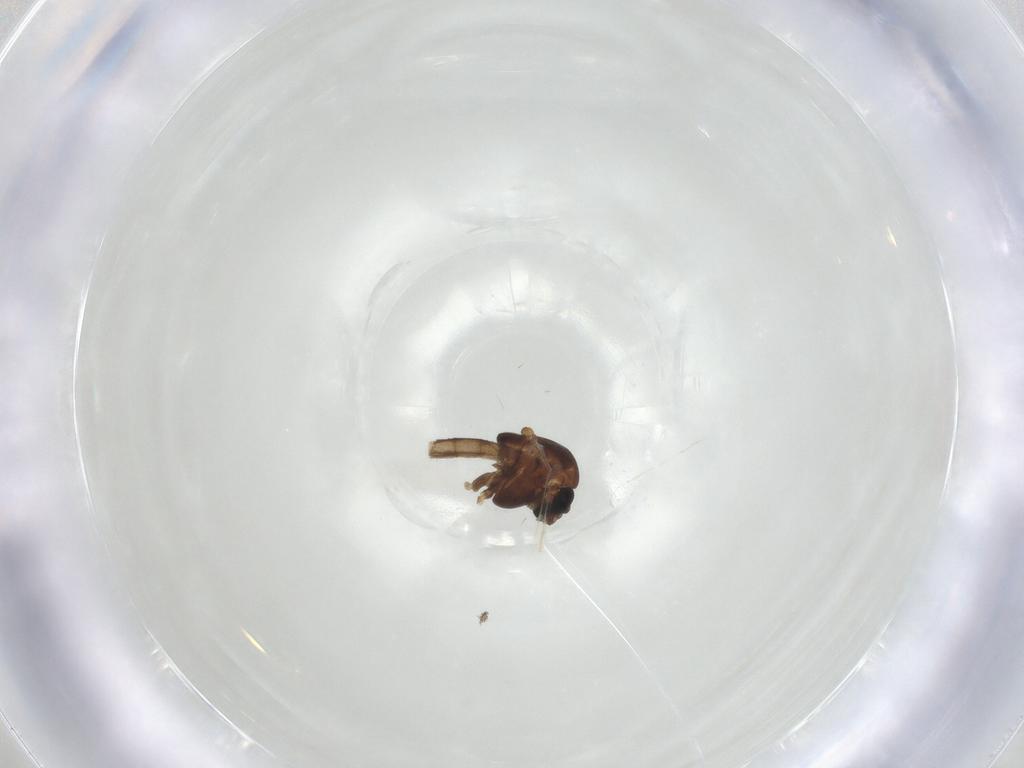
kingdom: Animalia
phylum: Arthropoda
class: Insecta
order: Diptera
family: Chironomidae
